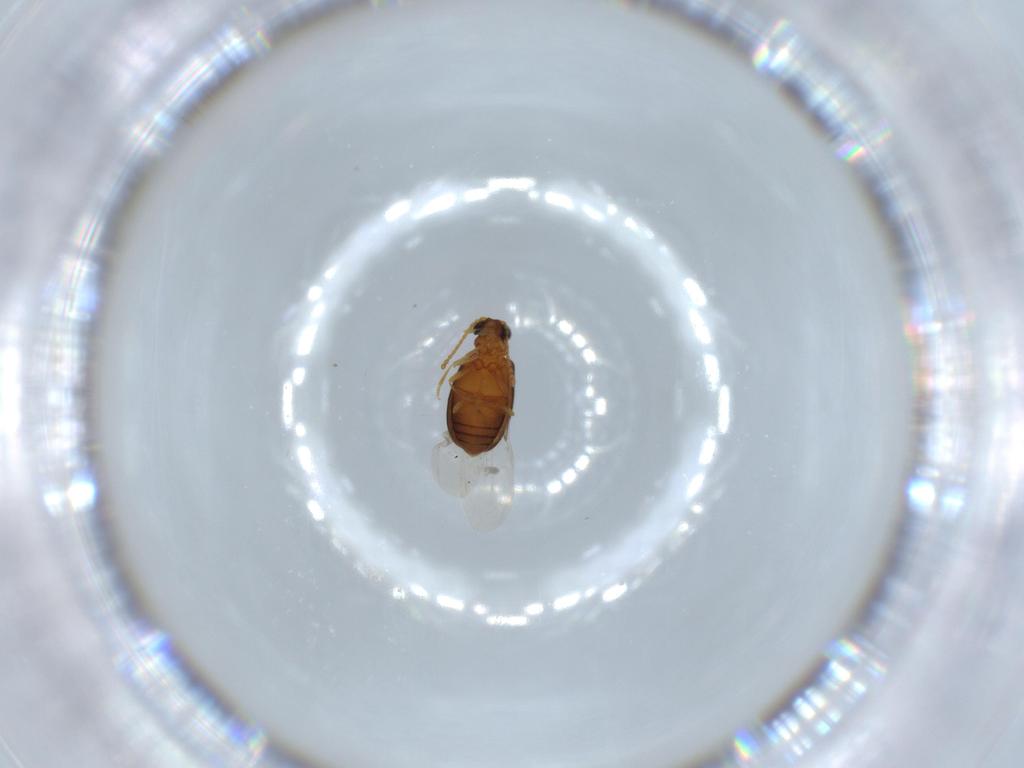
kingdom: Animalia
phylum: Arthropoda
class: Insecta
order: Coleoptera
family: Aderidae
